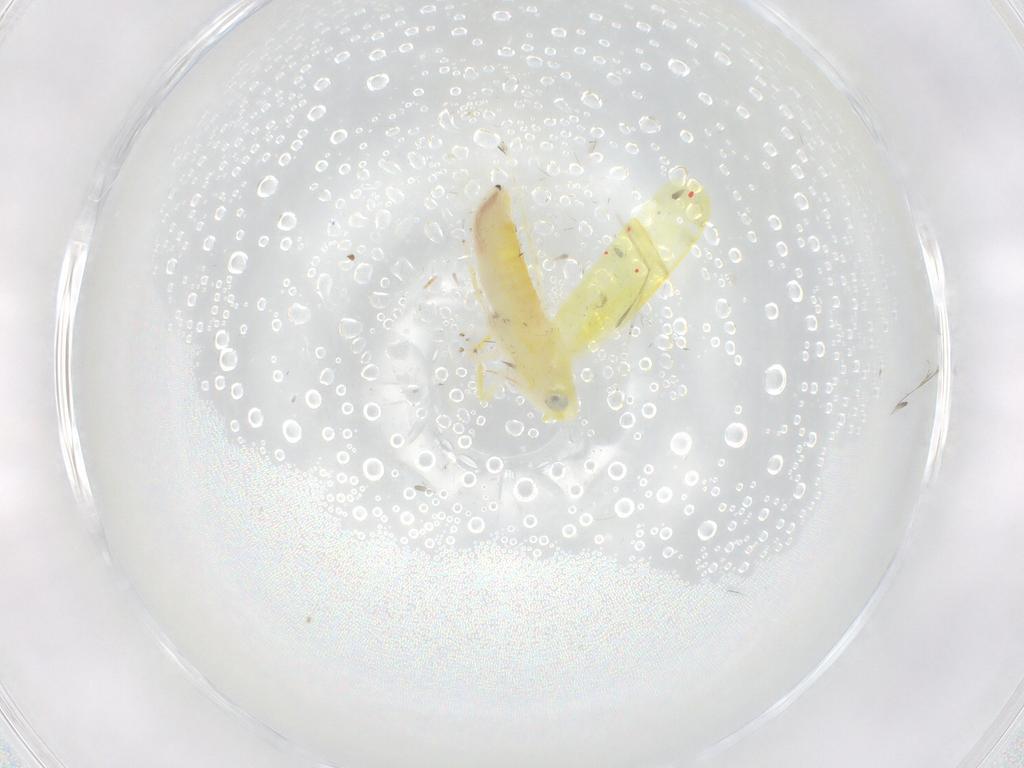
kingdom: Animalia
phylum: Arthropoda
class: Insecta
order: Hemiptera
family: Cicadellidae
